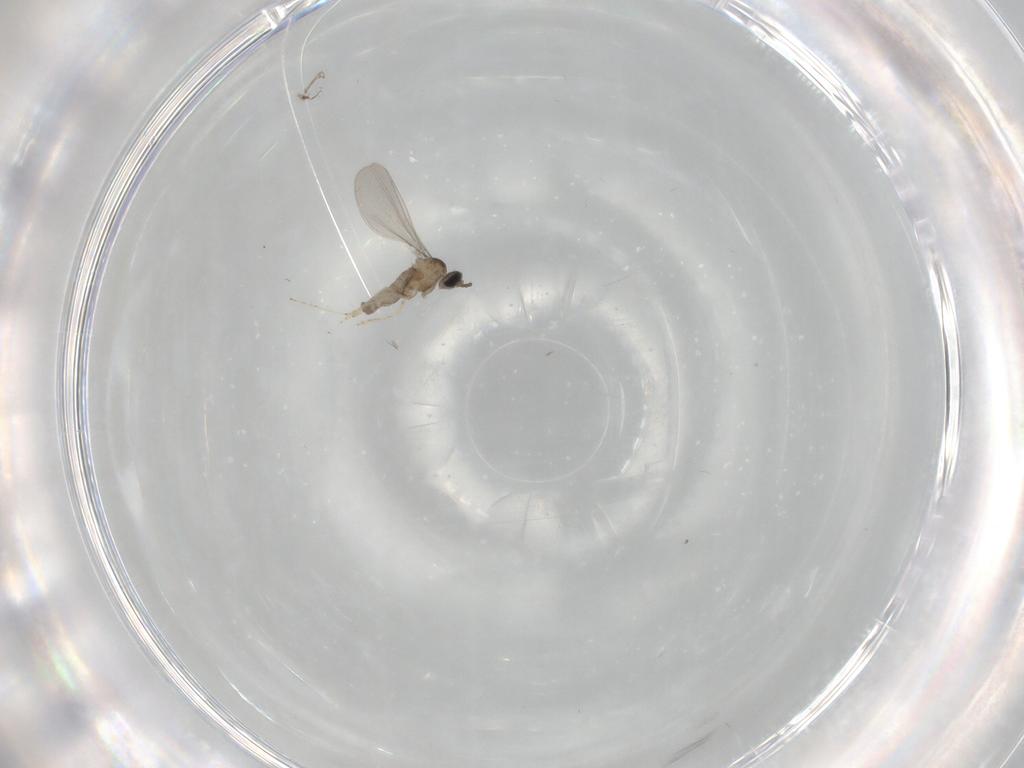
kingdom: Animalia
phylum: Arthropoda
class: Insecta
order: Diptera
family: Chironomidae
